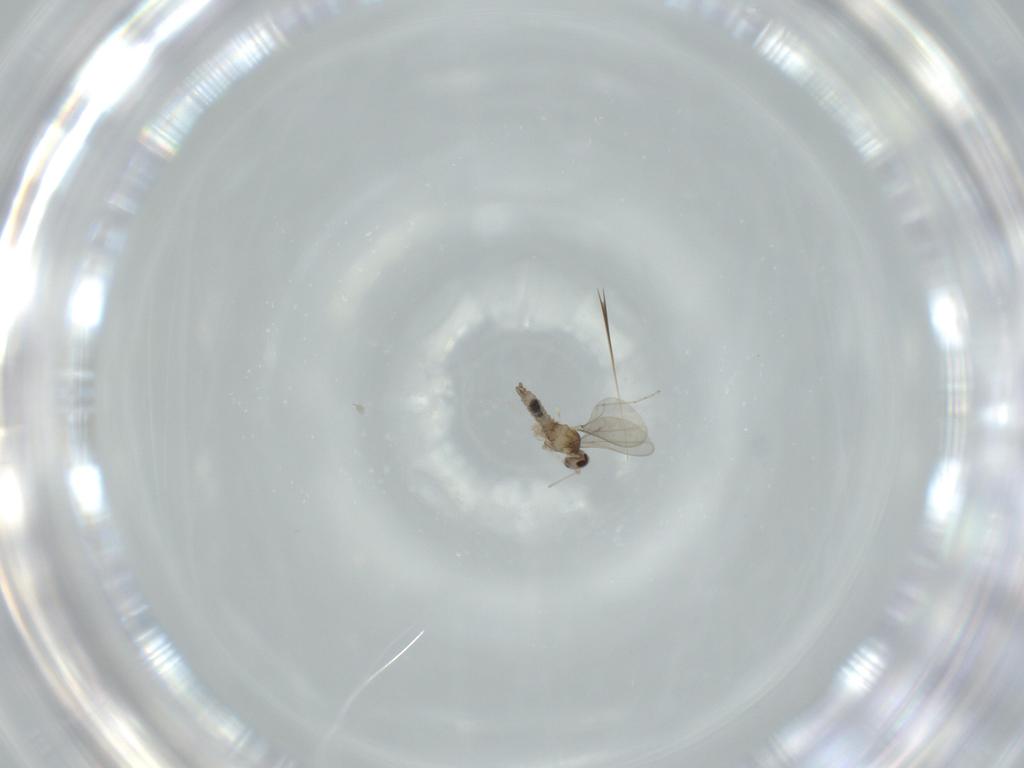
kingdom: Animalia
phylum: Arthropoda
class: Insecta
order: Diptera
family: Cecidomyiidae
